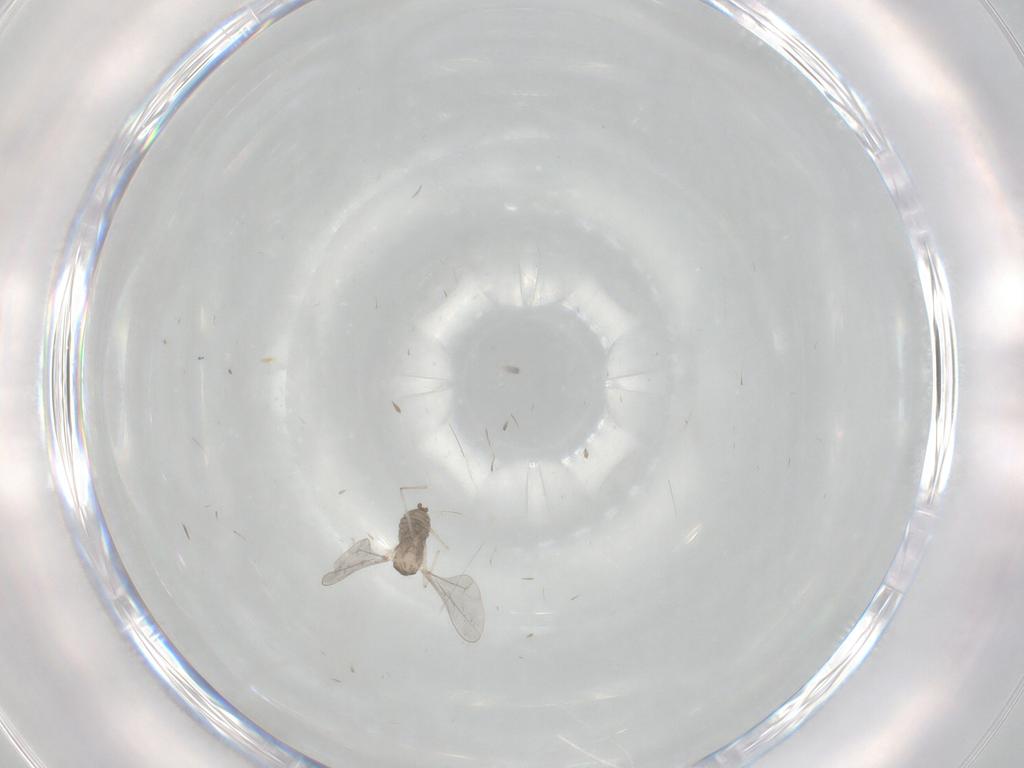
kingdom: Animalia
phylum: Arthropoda
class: Insecta
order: Diptera
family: Cecidomyiidae
